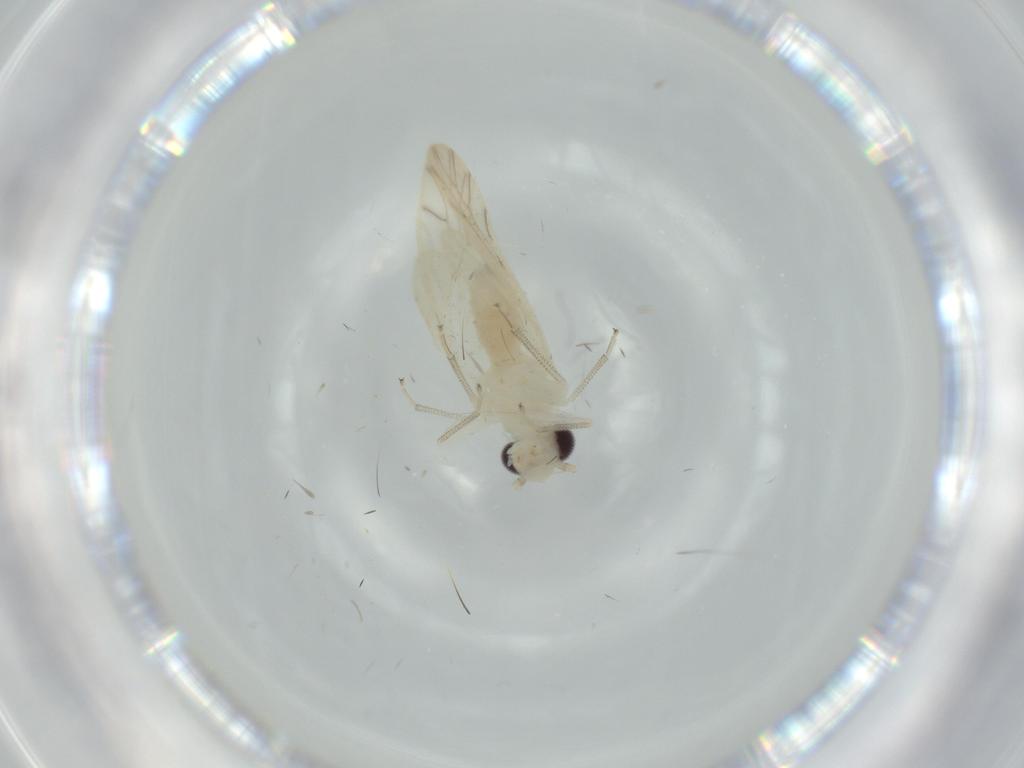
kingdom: Animalia
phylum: Arthropoda
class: Insecta
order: Psocodea
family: Caeciliusidae
